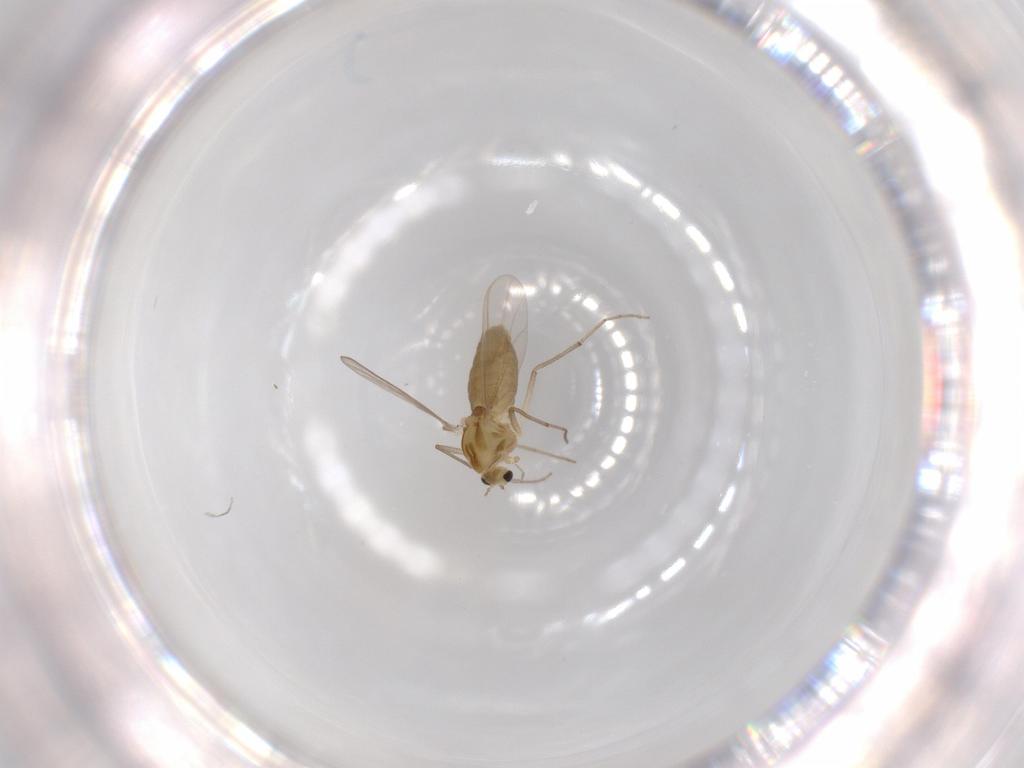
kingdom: Animalia
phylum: Arthropoda
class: Insecta
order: Diptera
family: Chironomidae
